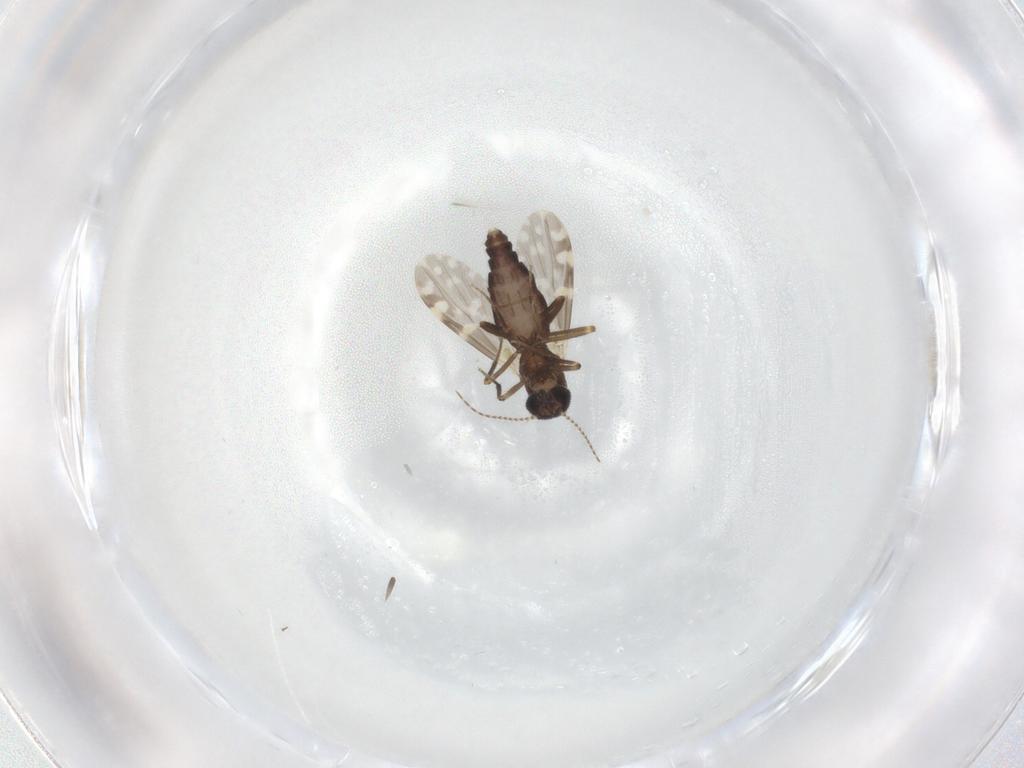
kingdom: Animalia
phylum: Arthropoda
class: Insecta
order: Diptera
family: Ceratopogonidae
